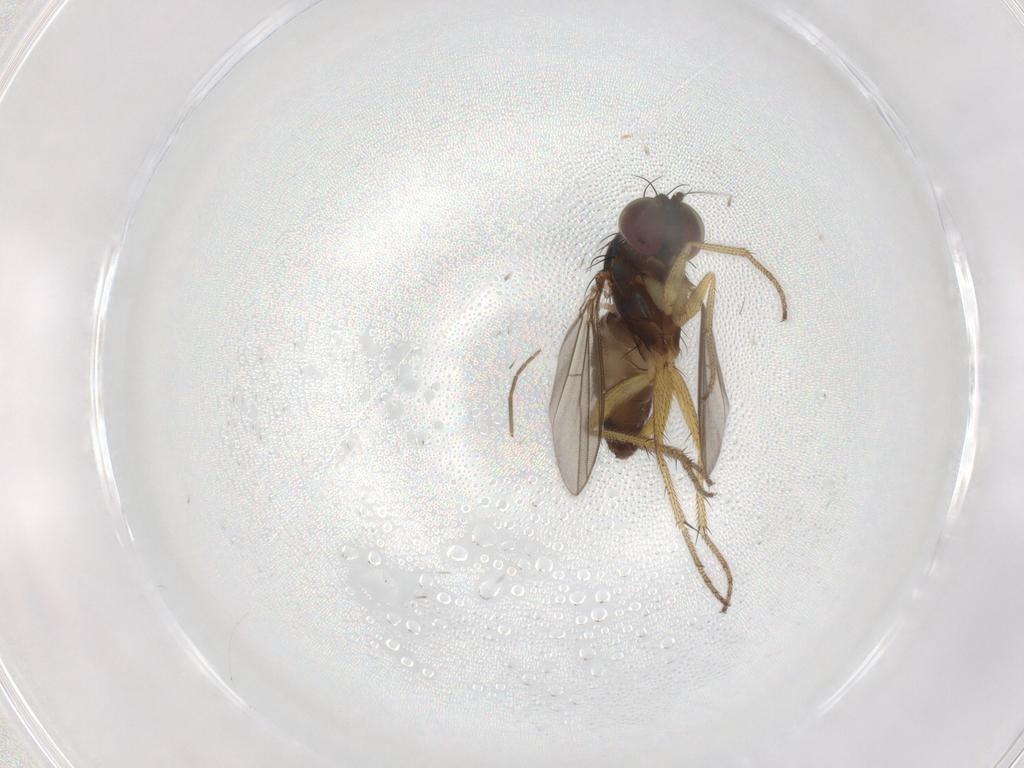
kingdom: Animalia
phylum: Arthropoda
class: Insecta
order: Diptera
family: Chironomidae
